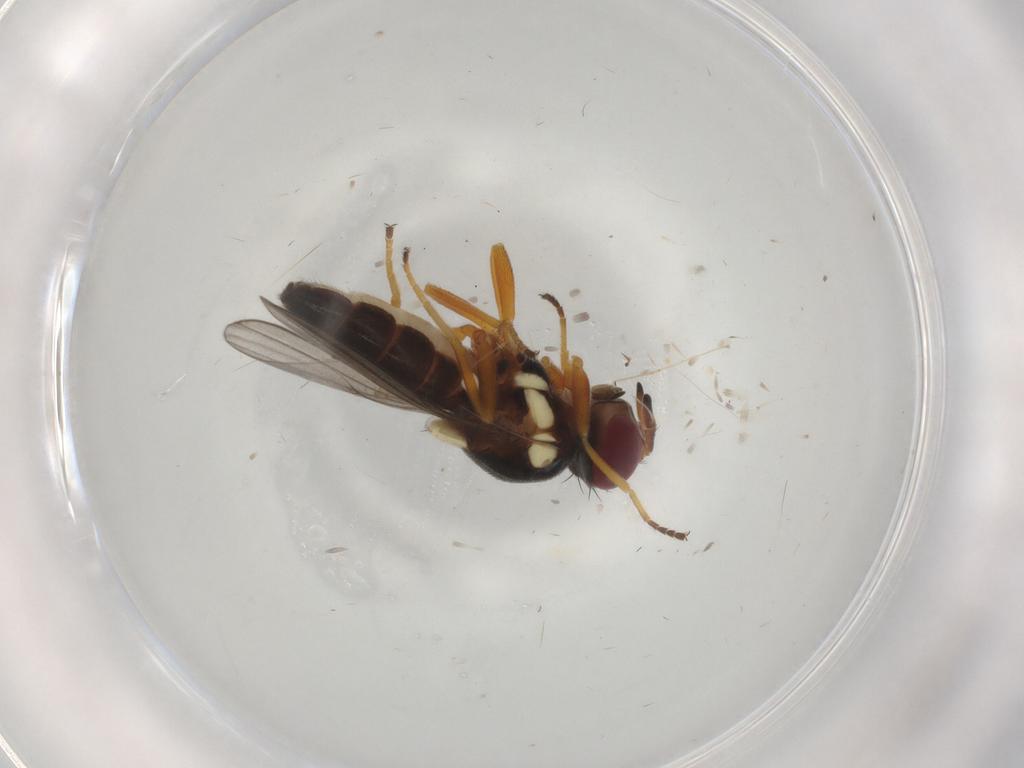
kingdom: Animalia
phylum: Arthropoda
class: Insecta
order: Diptera
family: Chloropidae
